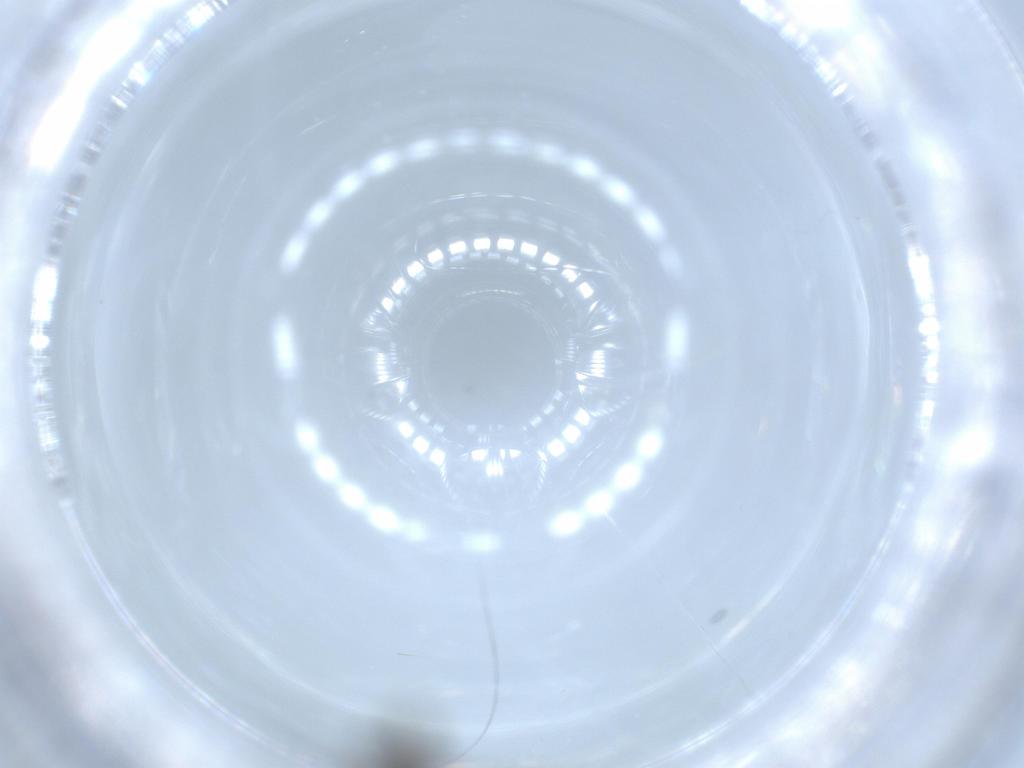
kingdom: Animalia
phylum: Arthropoda
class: Insecta
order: Diptera
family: Sciaridae
